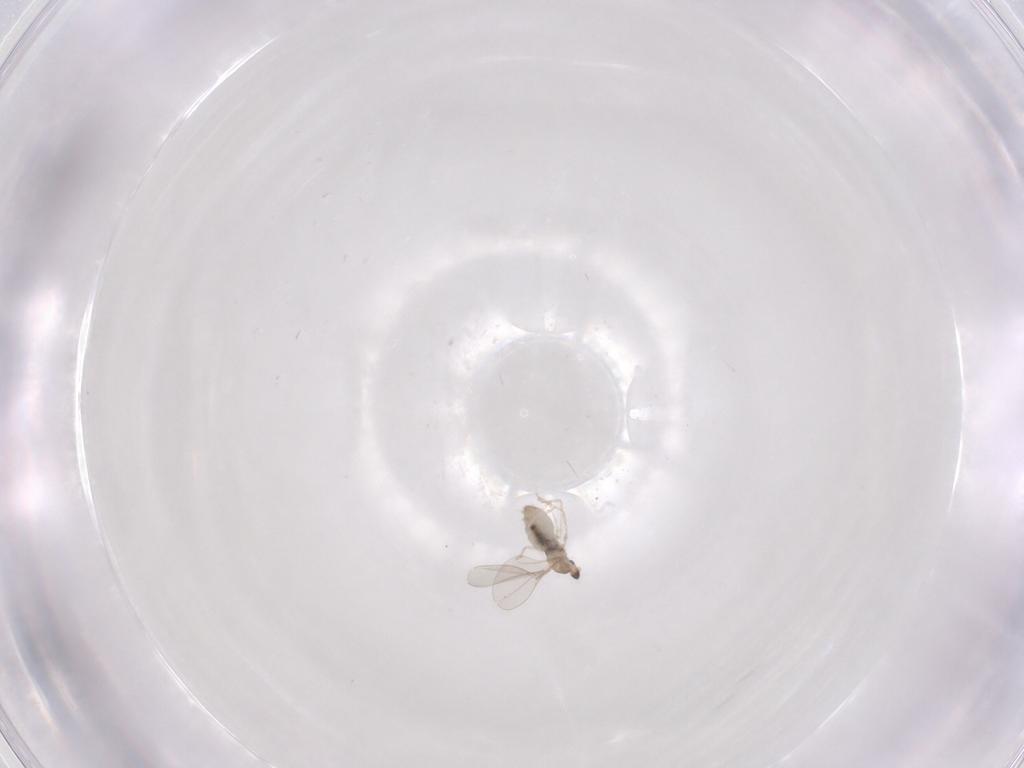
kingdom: Animalia
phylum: Arthropoda
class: Insecta
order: Diptera
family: Cecidomyiidae
